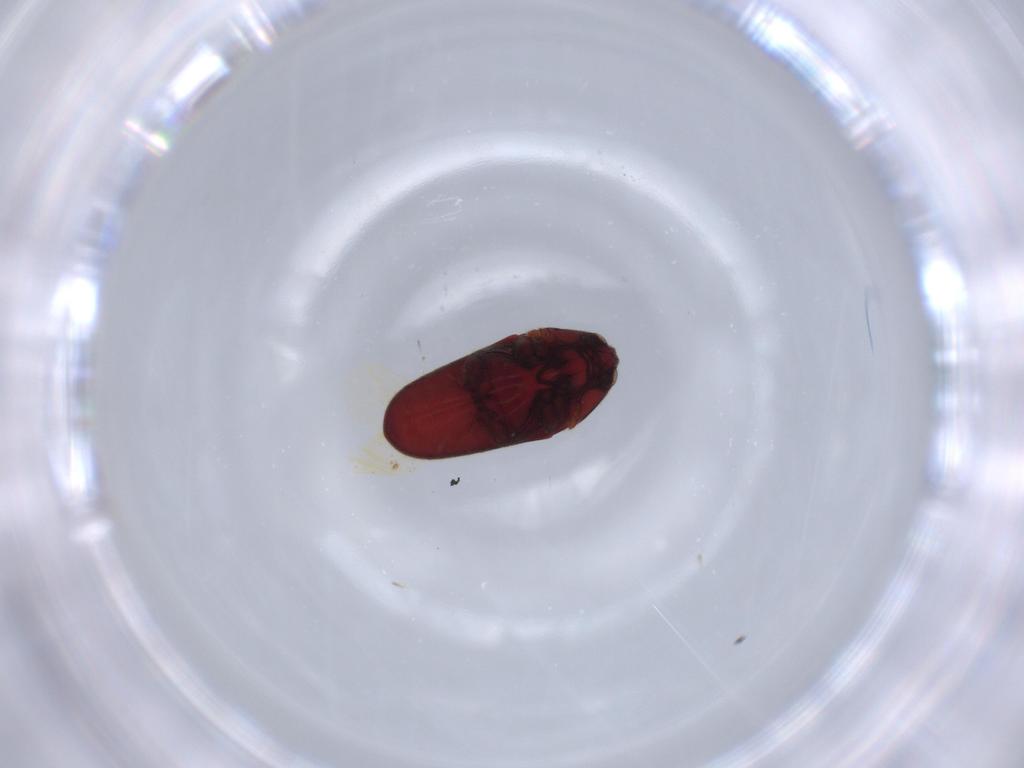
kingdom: Animalia
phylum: Arthropoda
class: Insecta
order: Coleoptera
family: Throscidae
